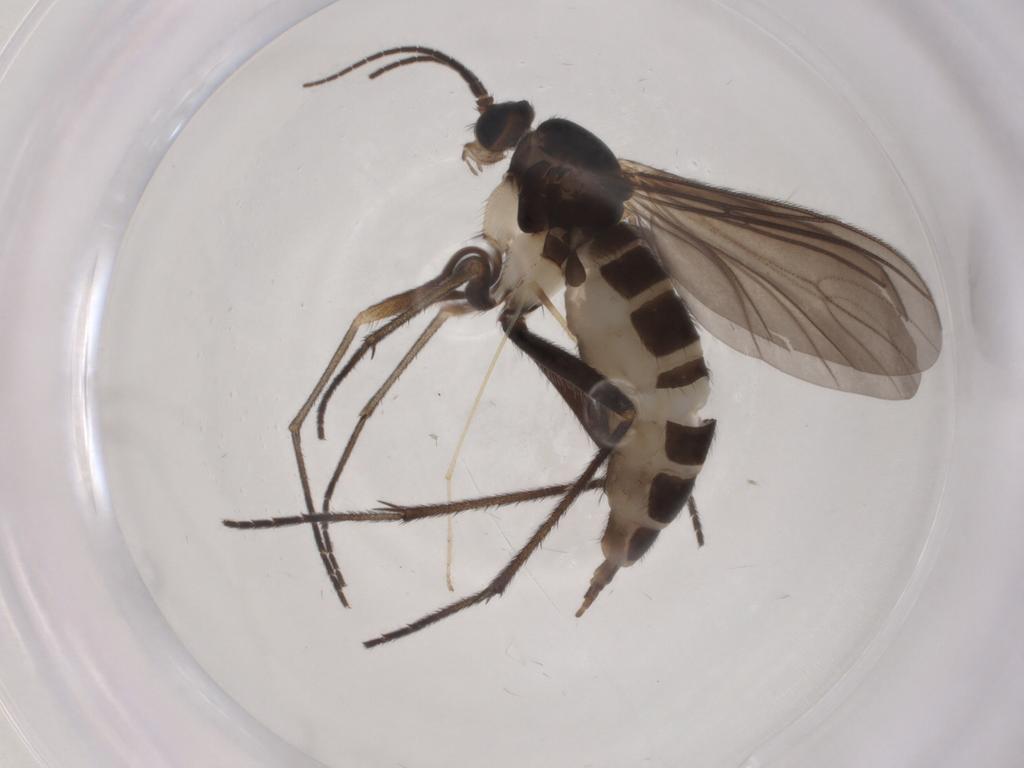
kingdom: Animalia
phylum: Arthropoda
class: Insecta
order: Diptera
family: Sciaridae
